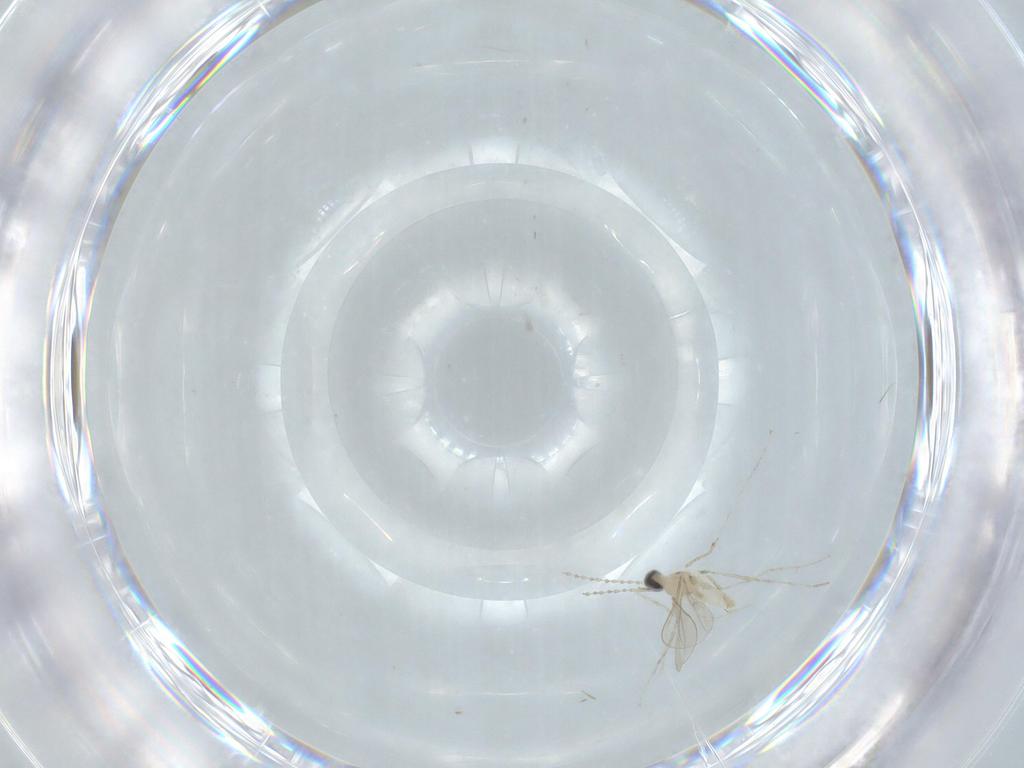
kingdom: Animalia
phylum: Arthropoda
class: Insecta
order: Diptera
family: Cecidomyiidae
